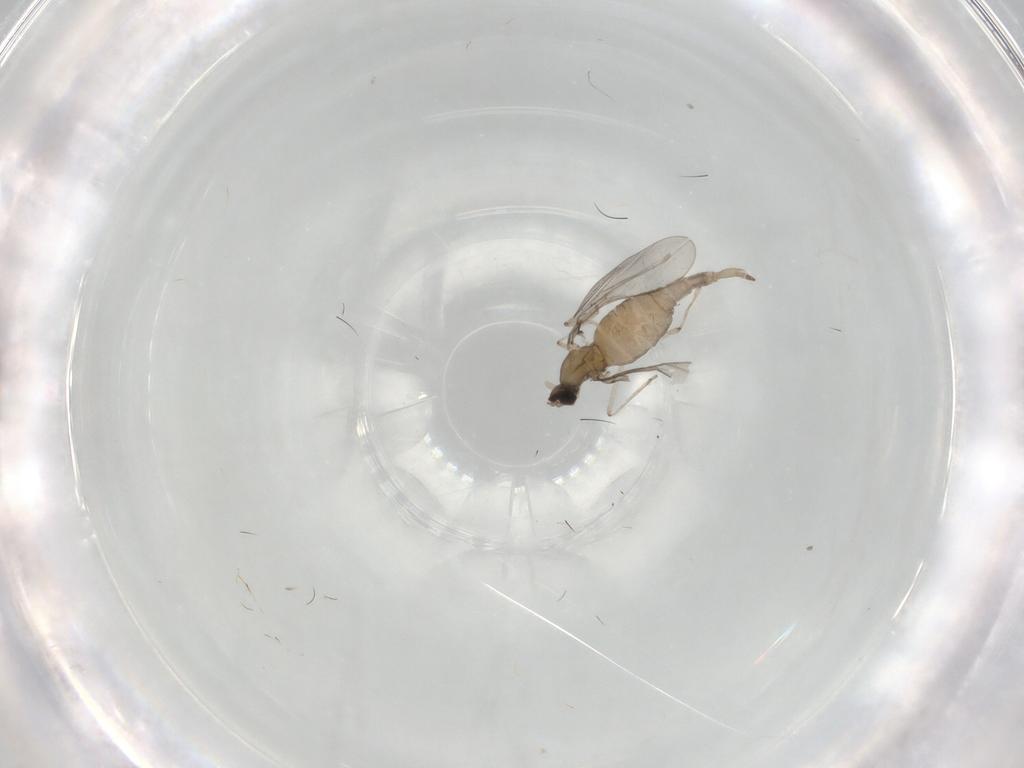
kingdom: Animalia
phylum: Arthropoda
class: Insecta
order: Diptera
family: Cecidomyiidae
